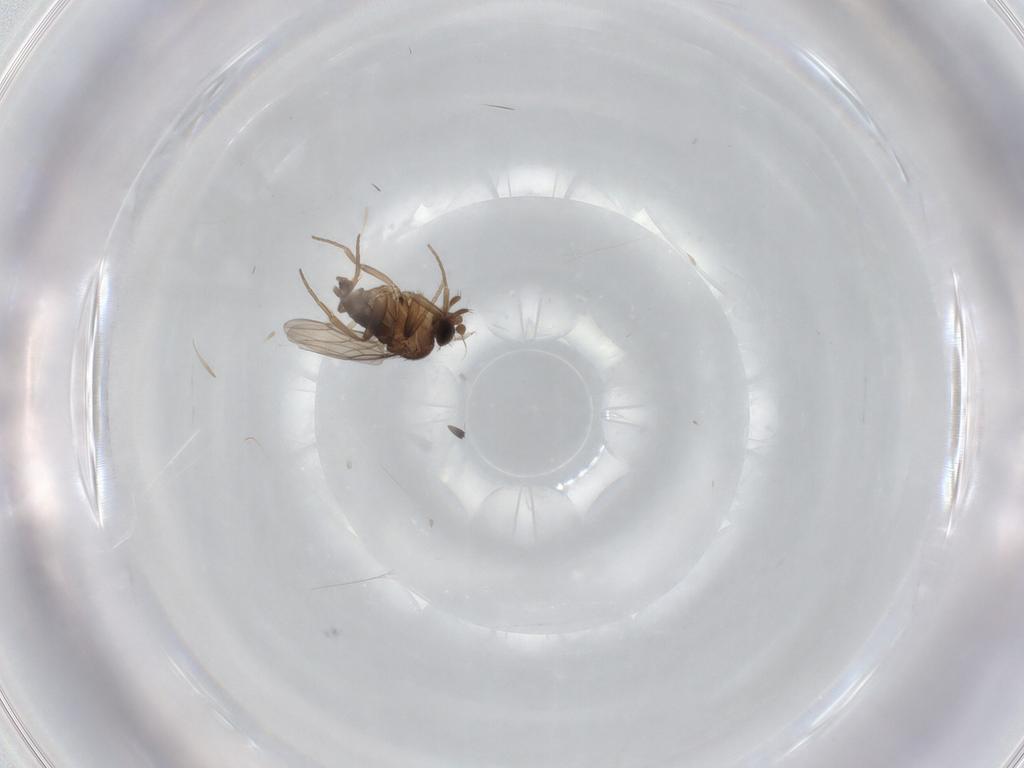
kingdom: Animalia
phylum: Arthropoda
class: Insecta
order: Diptera
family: Phoridae
